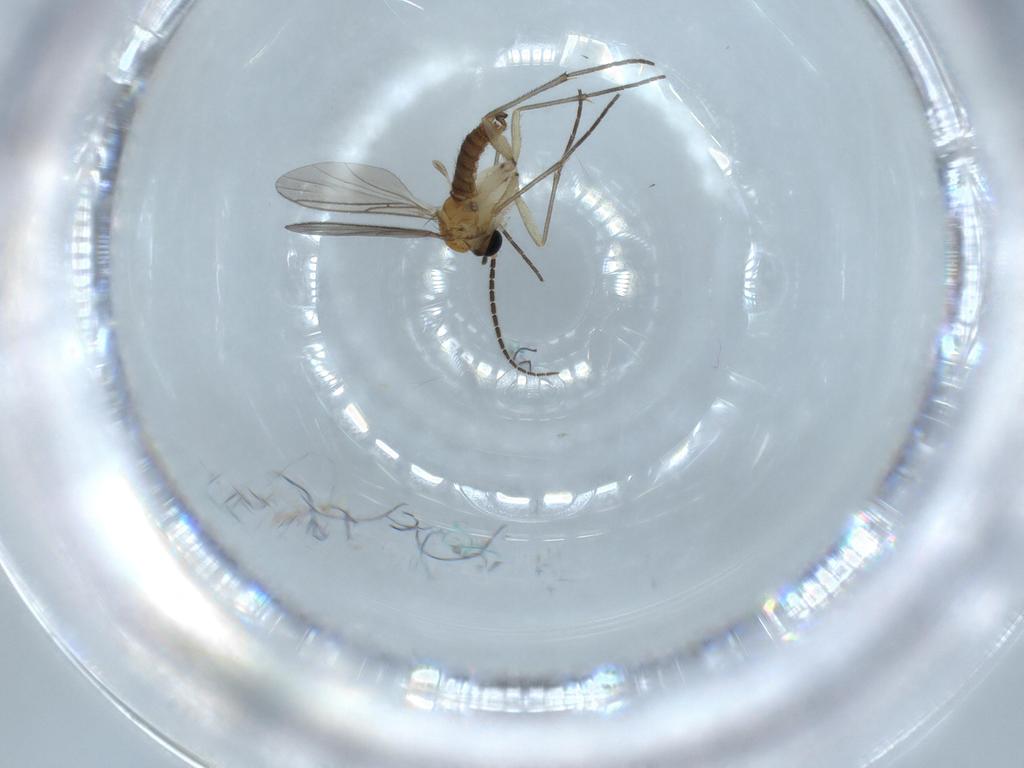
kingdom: Animalia
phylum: Arthropoda
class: Insecta
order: Diptera
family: Sciaridae
